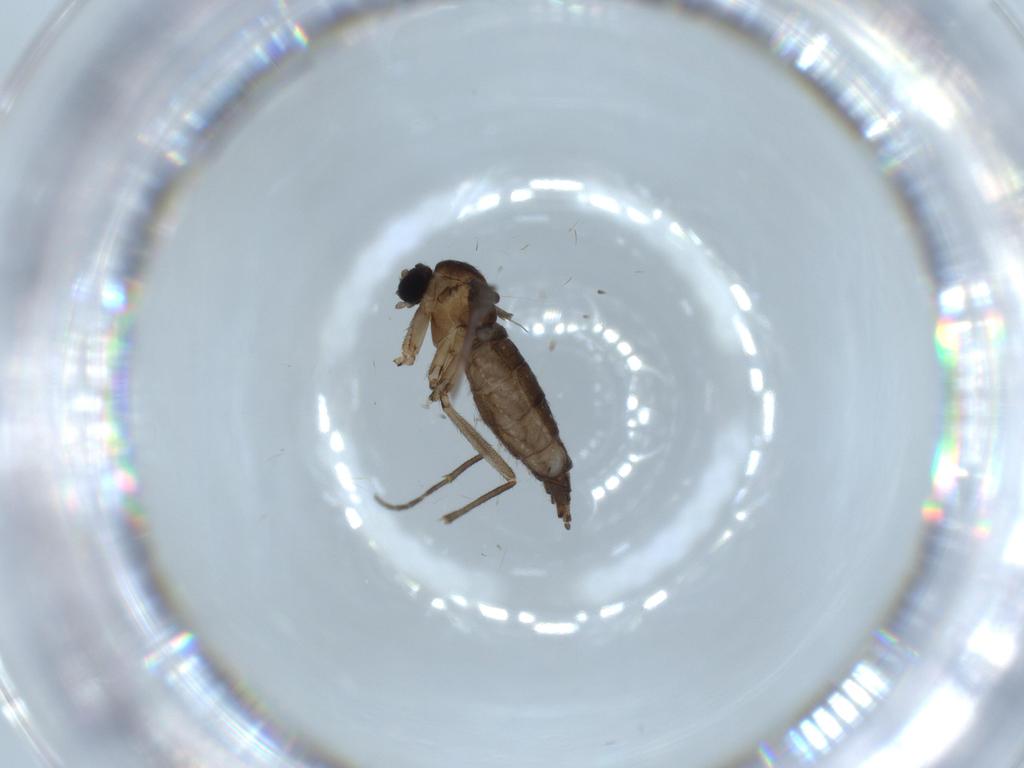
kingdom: Animalia
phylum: Arthropoda
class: Insecta
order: Diptera
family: Sciaridae
